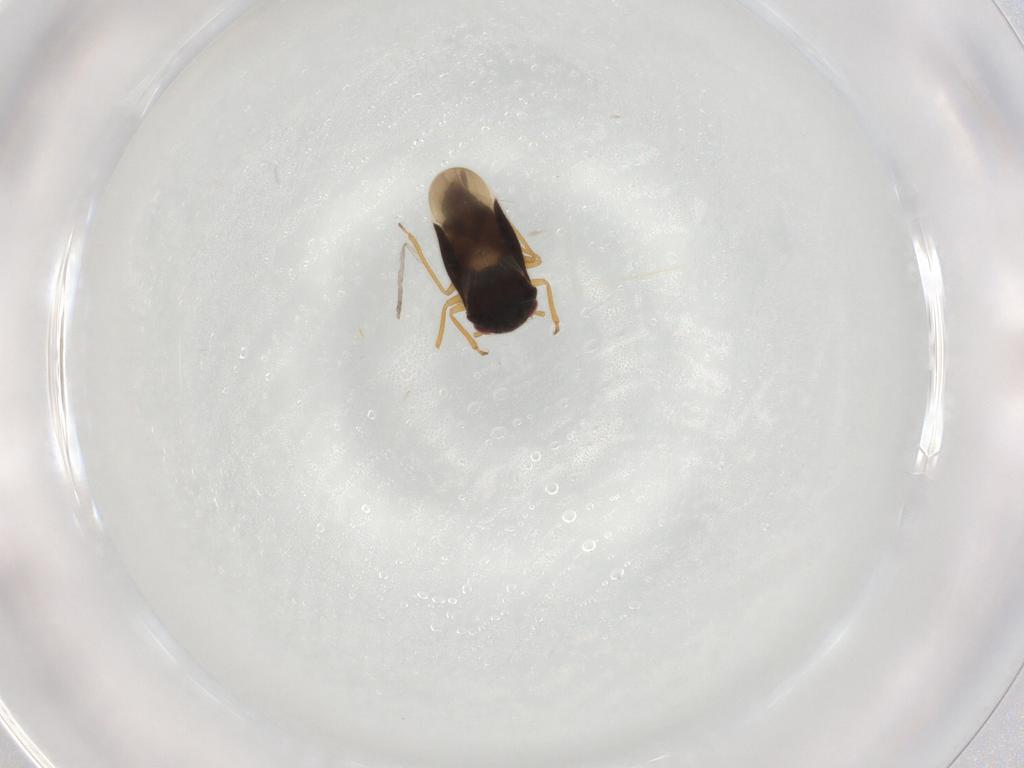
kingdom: Animalia
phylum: Arthropoda
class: Insecta
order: Hemiptera
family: Schizopteridae
